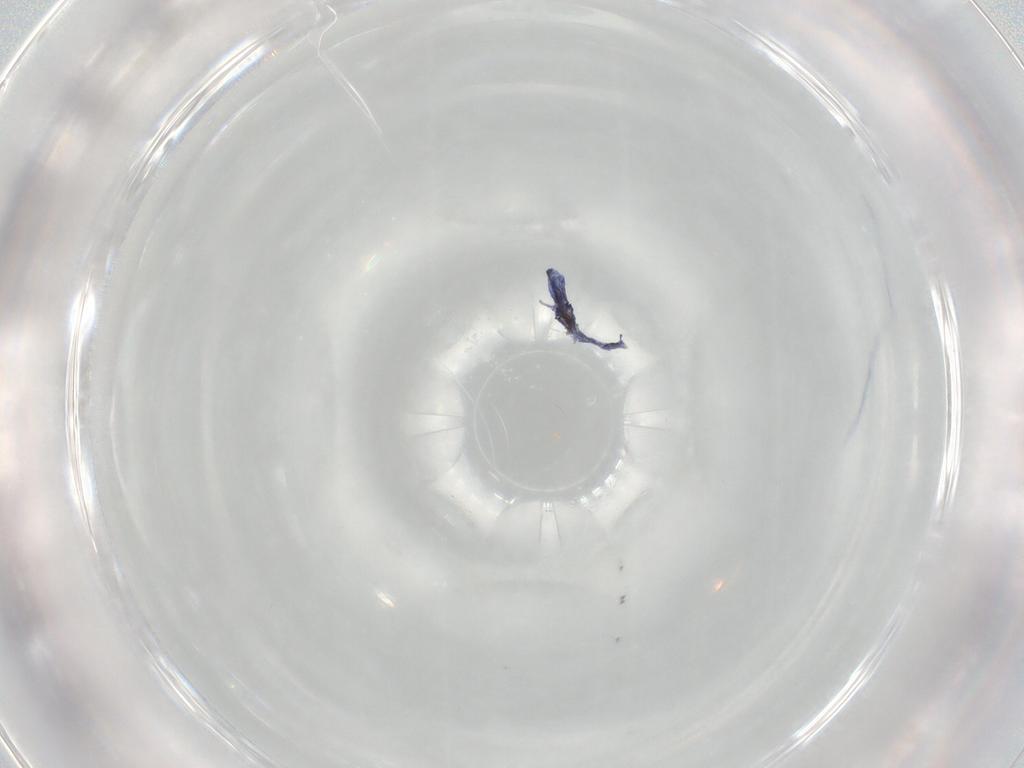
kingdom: Animalia
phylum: Arthropoda
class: Collembola
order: Entomobryomorpha
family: Entomobryidae
